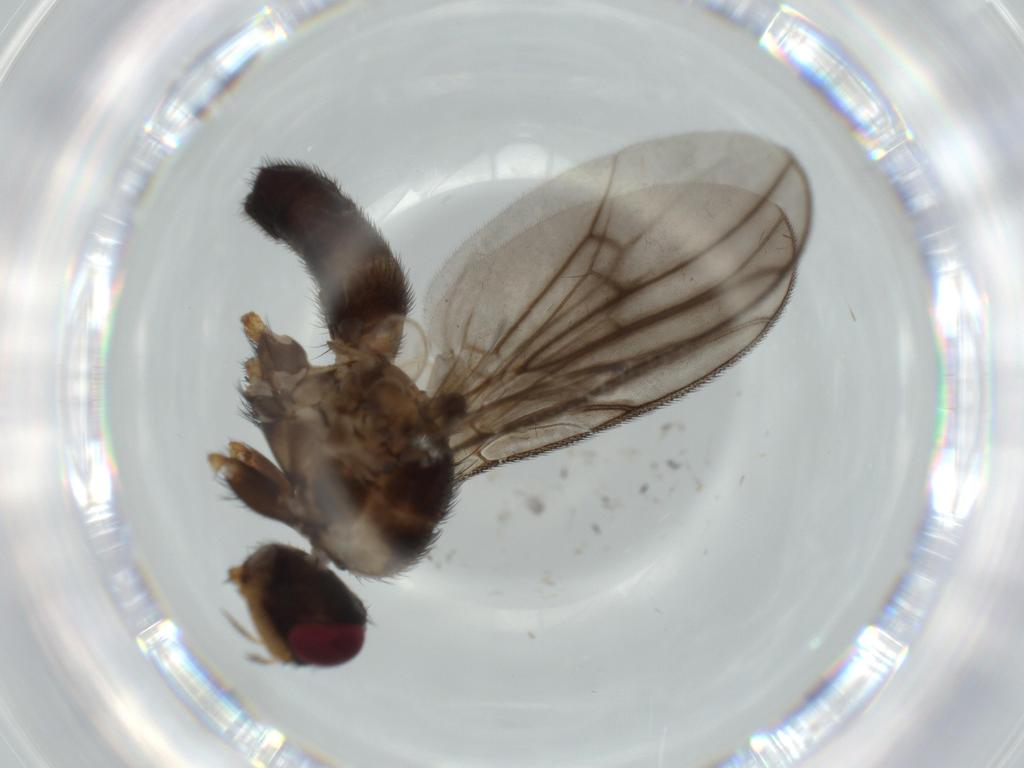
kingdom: Animalia
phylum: Arthropoda
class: Insecta
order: Diptera
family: Calliphoridae
